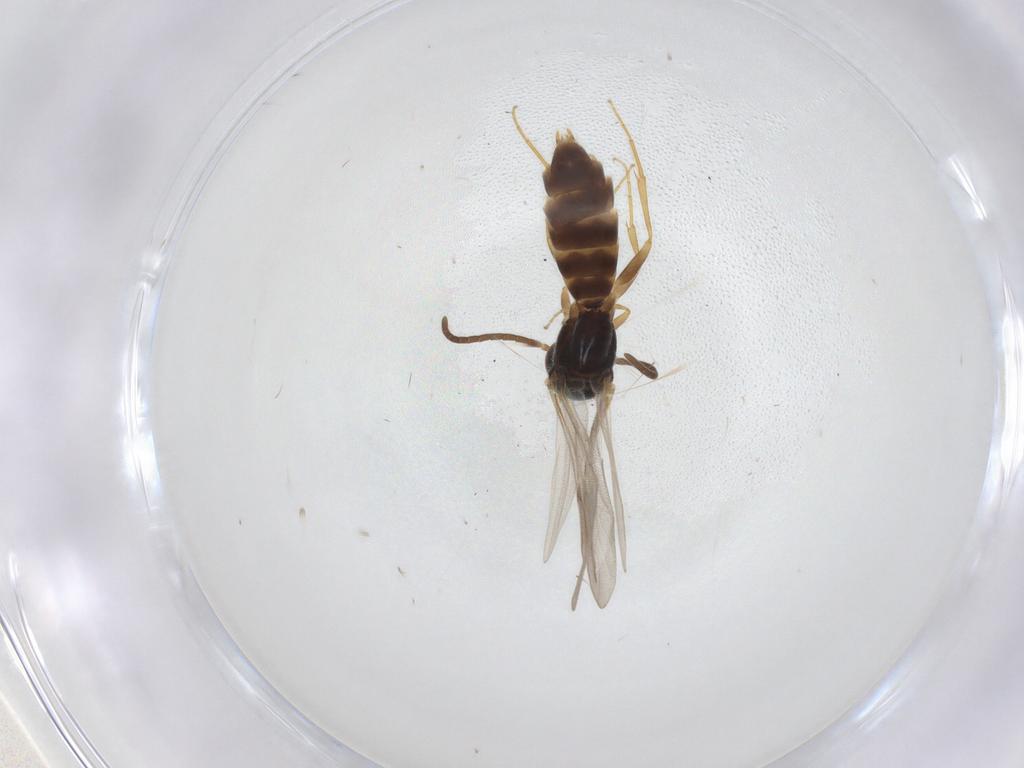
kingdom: Animalia
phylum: Arthropoda
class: Insecta
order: Hymenoptera
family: Bethylidae
